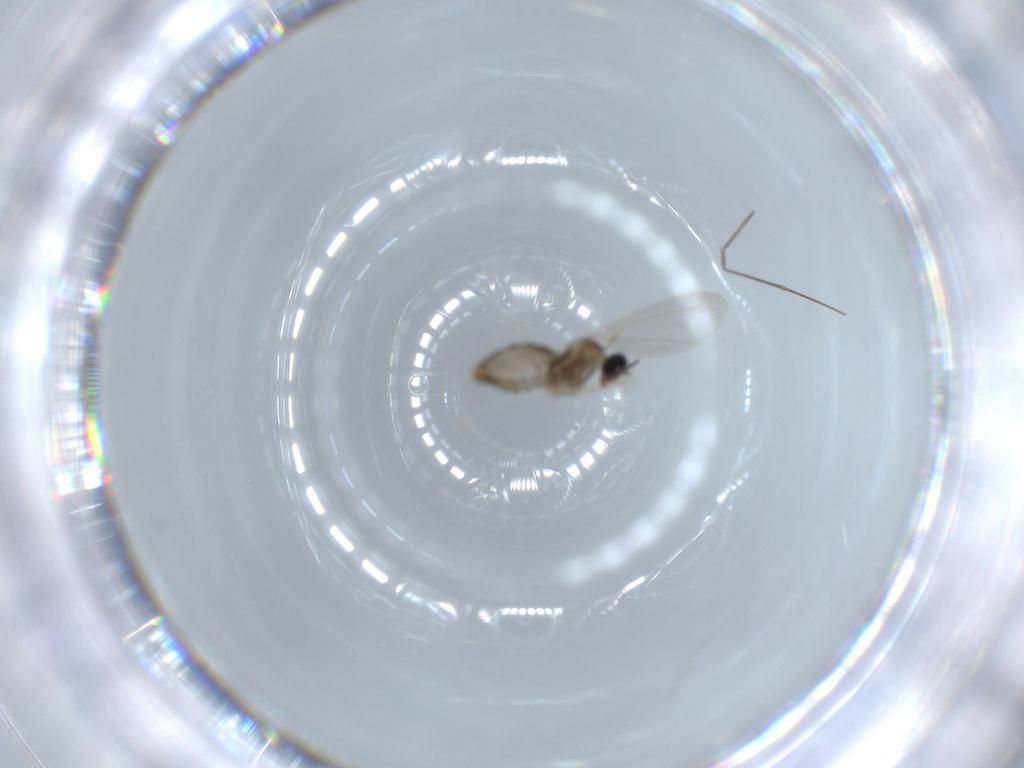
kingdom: Animalia
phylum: Arthropoda
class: Insecta
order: Diptera
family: Cecidomyiidae
